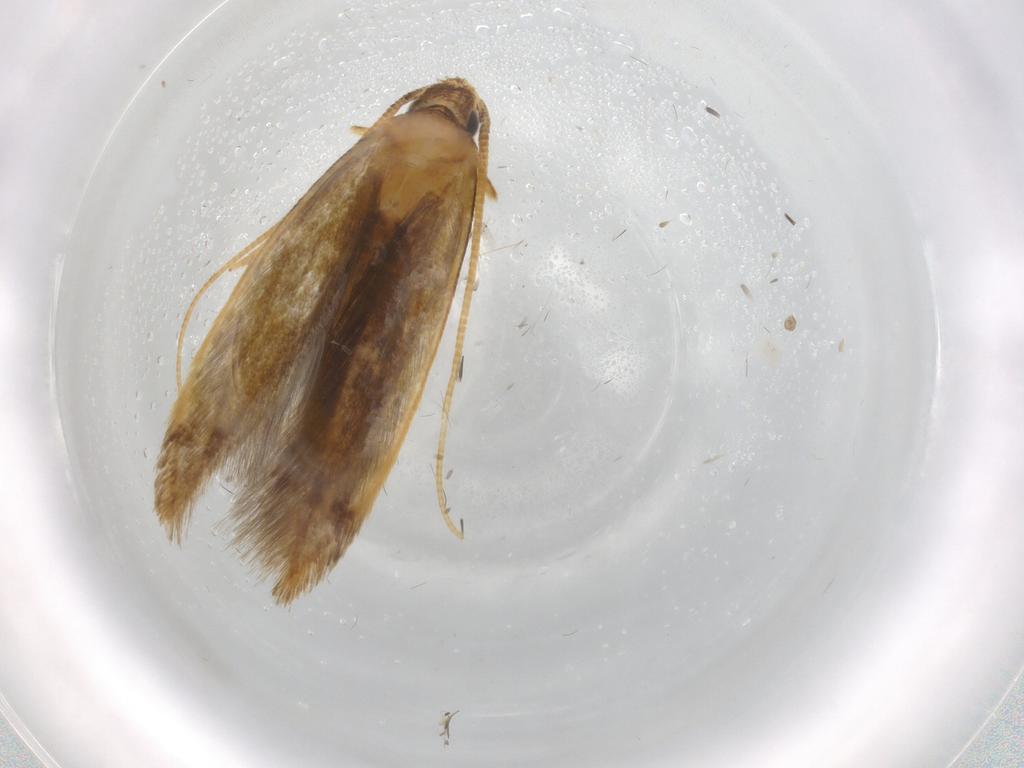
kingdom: Animalia
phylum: Arthropoda
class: Insecta
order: Lepidoptera
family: Tineidae
